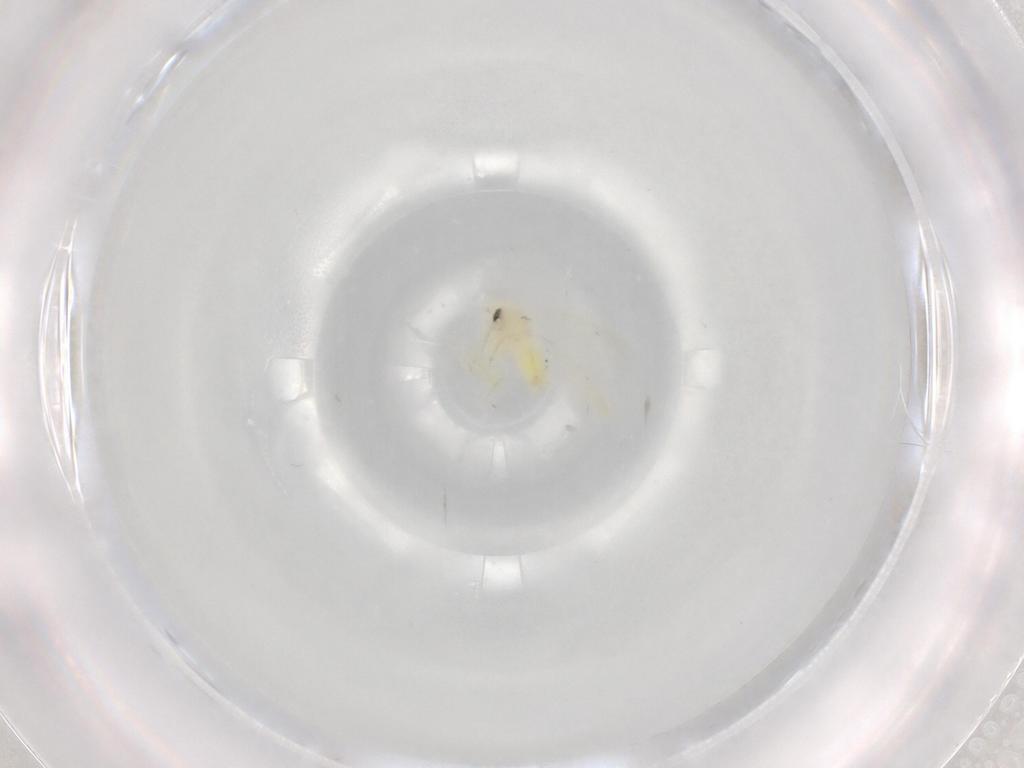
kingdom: Animalia
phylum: Arthropoda
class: Insecta
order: Hemiptera
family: Aleyrodidae
